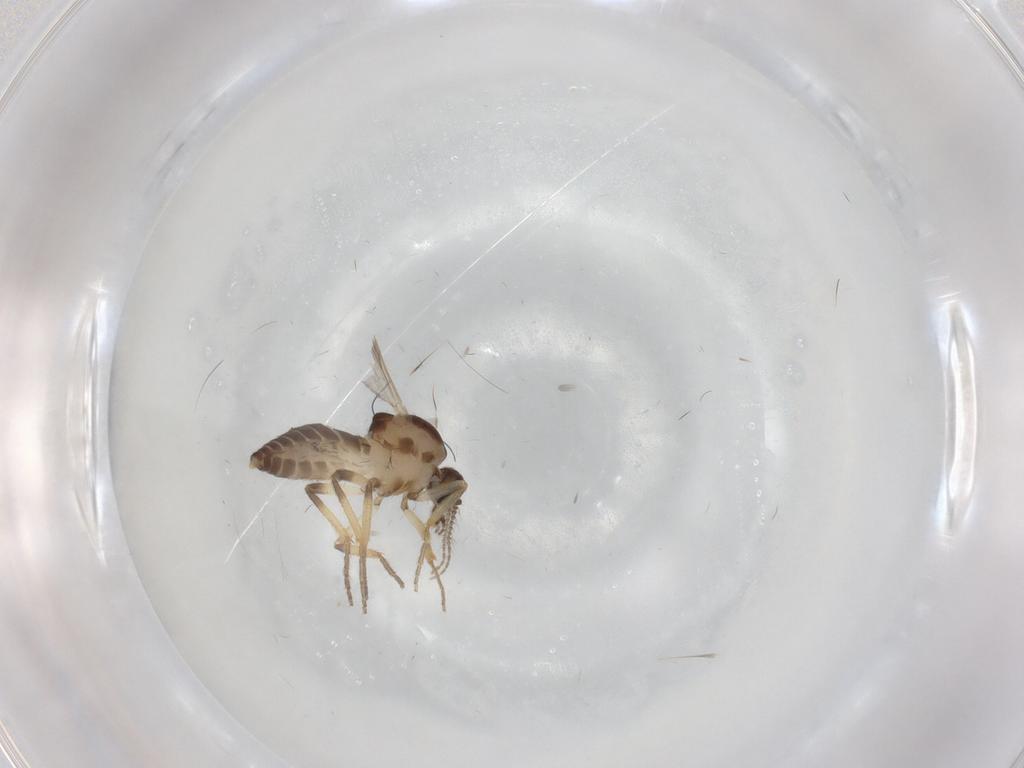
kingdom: Animalia
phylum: Arthropoda
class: Insecta
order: Diptera
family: Ceratopogonidae
